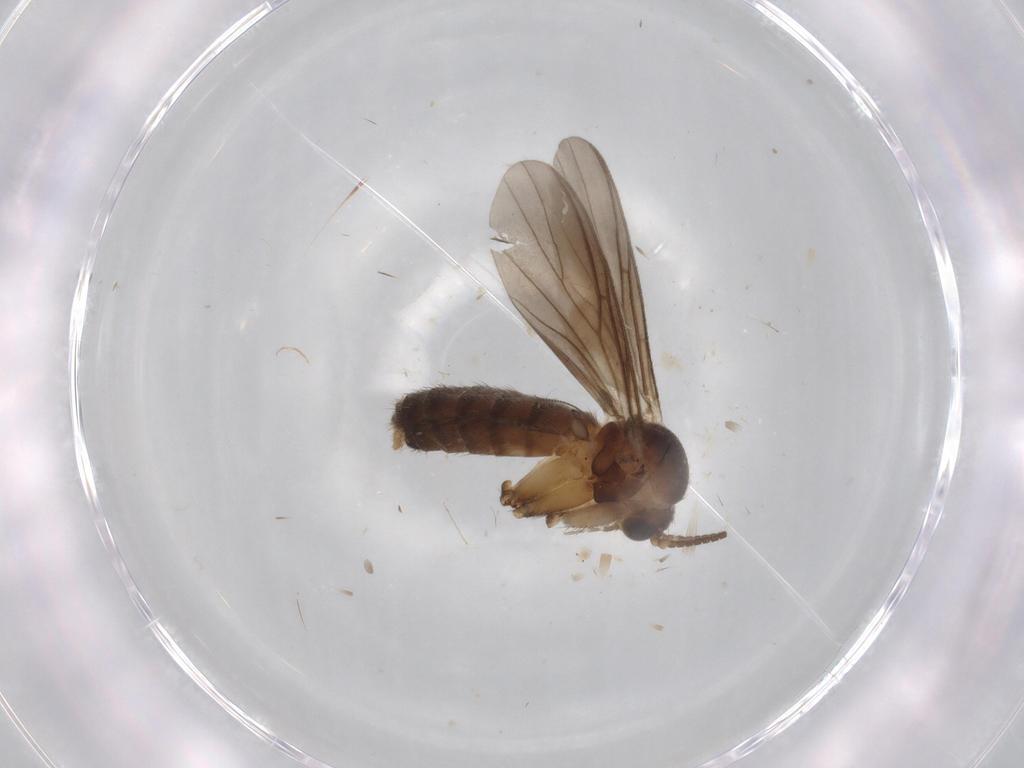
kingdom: Animalia
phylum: Arthropoda
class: Insecta
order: Diptera
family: Mycetophilidae
